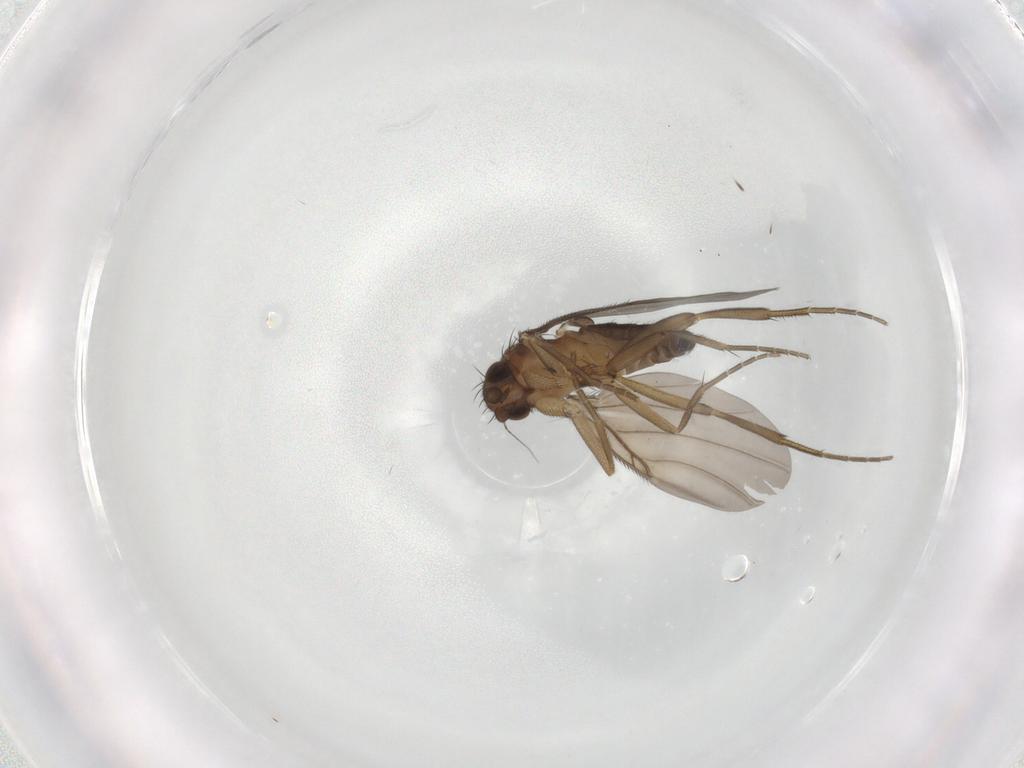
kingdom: Animalia
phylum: Arthropoda
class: Insecta
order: Diptera
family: Phoridae
